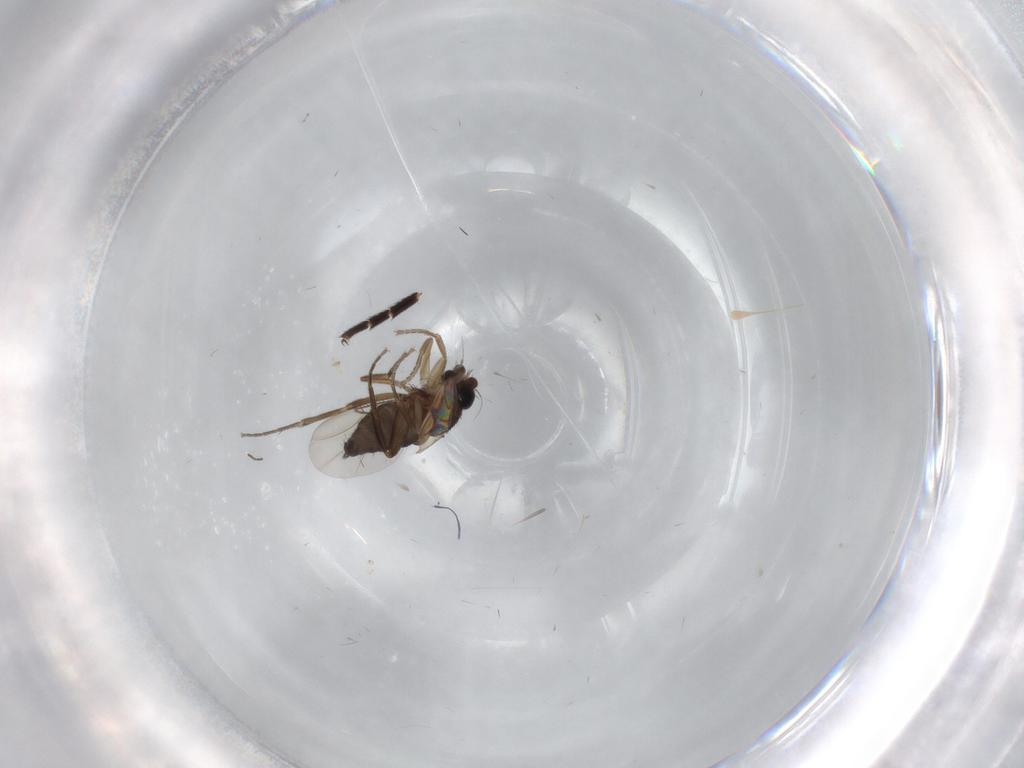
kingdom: Animalia
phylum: Arthropoda
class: Insecta
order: Diptera
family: Phoridae
